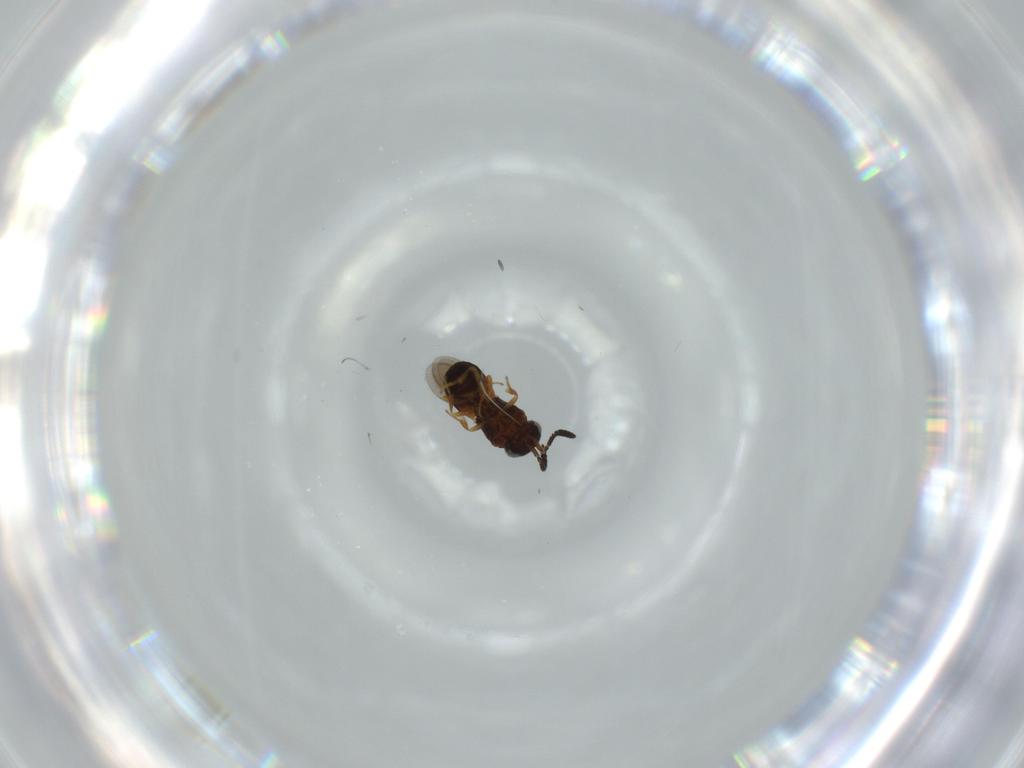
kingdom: Animalia
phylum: Arthropoda
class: Insecta
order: Hymenoptera
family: Scelionidae
